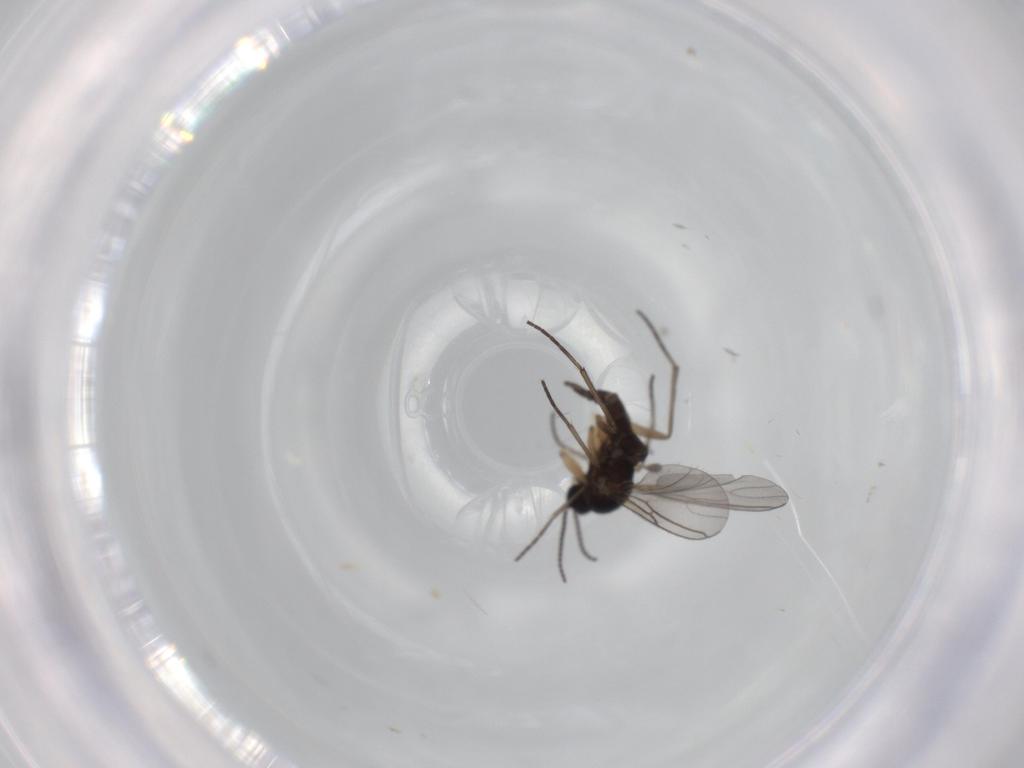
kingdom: Animalia
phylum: Arthropoda
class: Insecta
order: Diptera
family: Sciaridae
